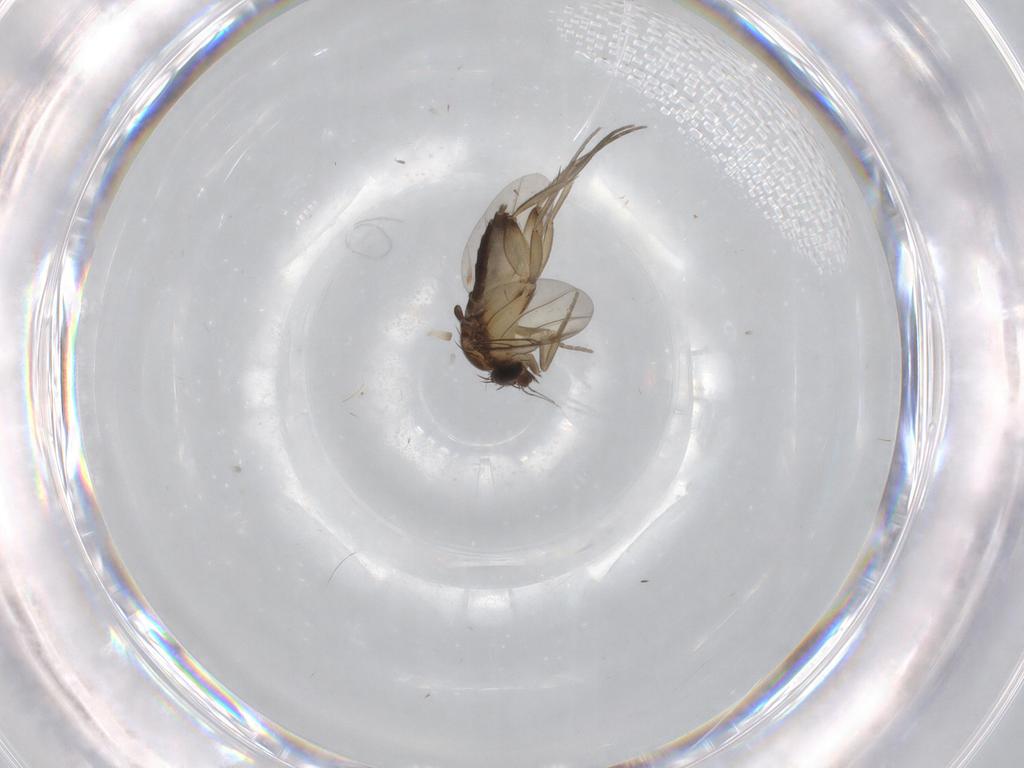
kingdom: Animalia
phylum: Arthropoda
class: Insecta
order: Diptera
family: Phoridae
